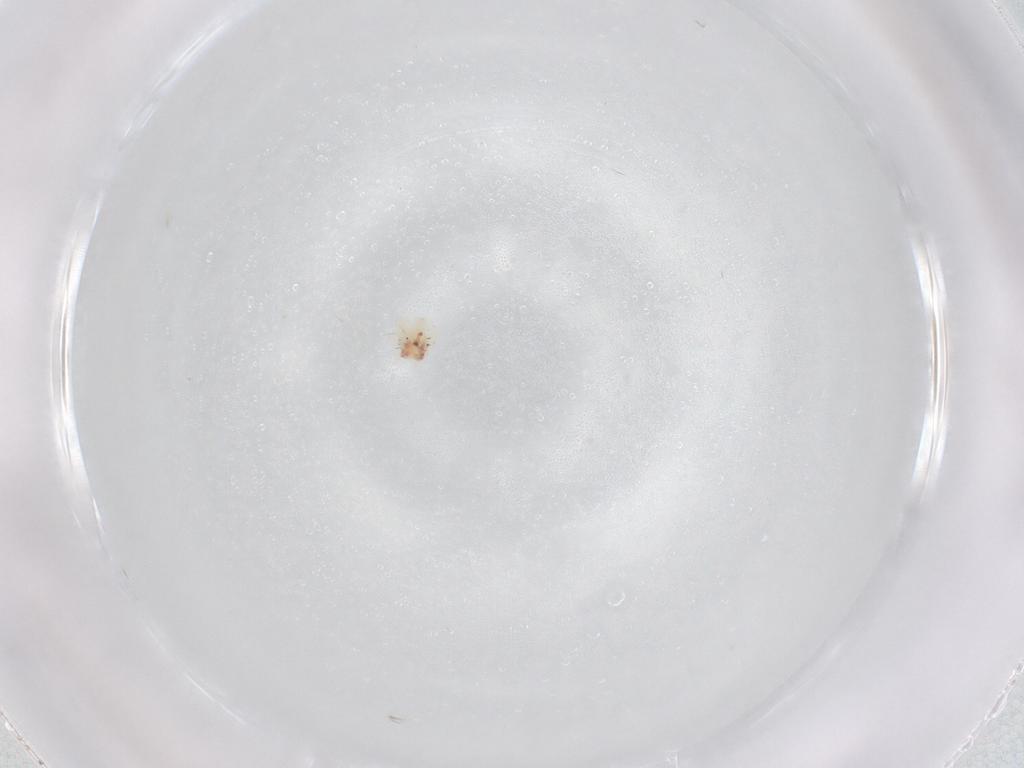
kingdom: Animalia
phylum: Arthropoda
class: Arachnida
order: Trombidiformes
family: Anystidae
